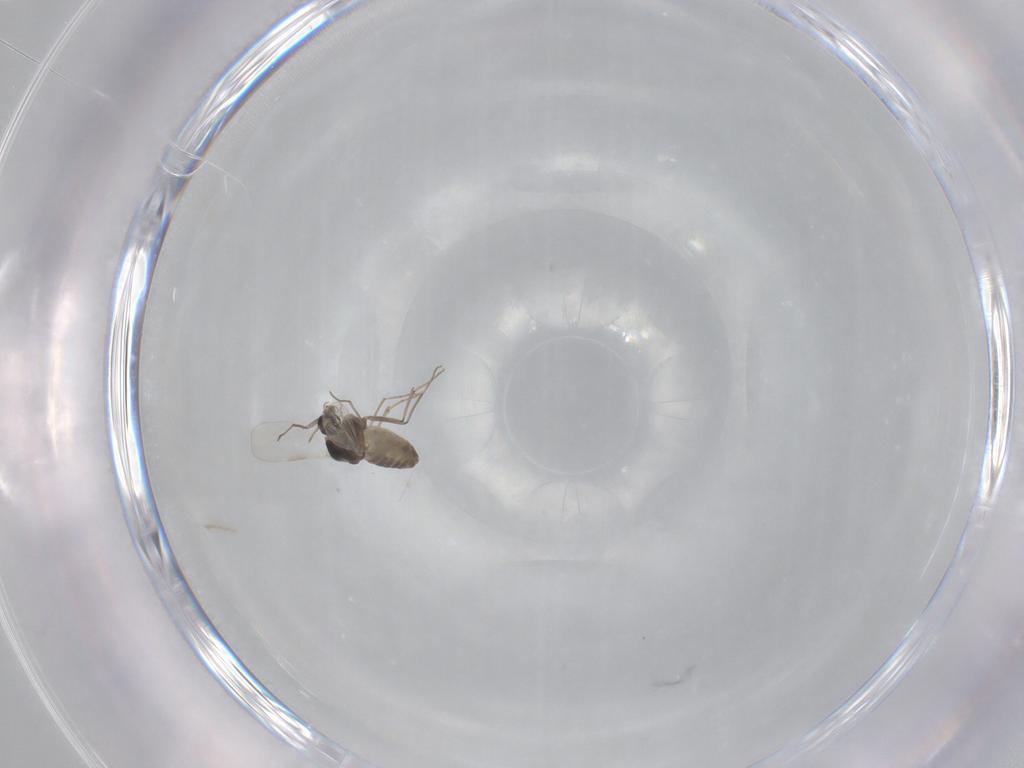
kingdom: Animalia
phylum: Arthropoda
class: Insecta
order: Diptera
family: Chironomidae
